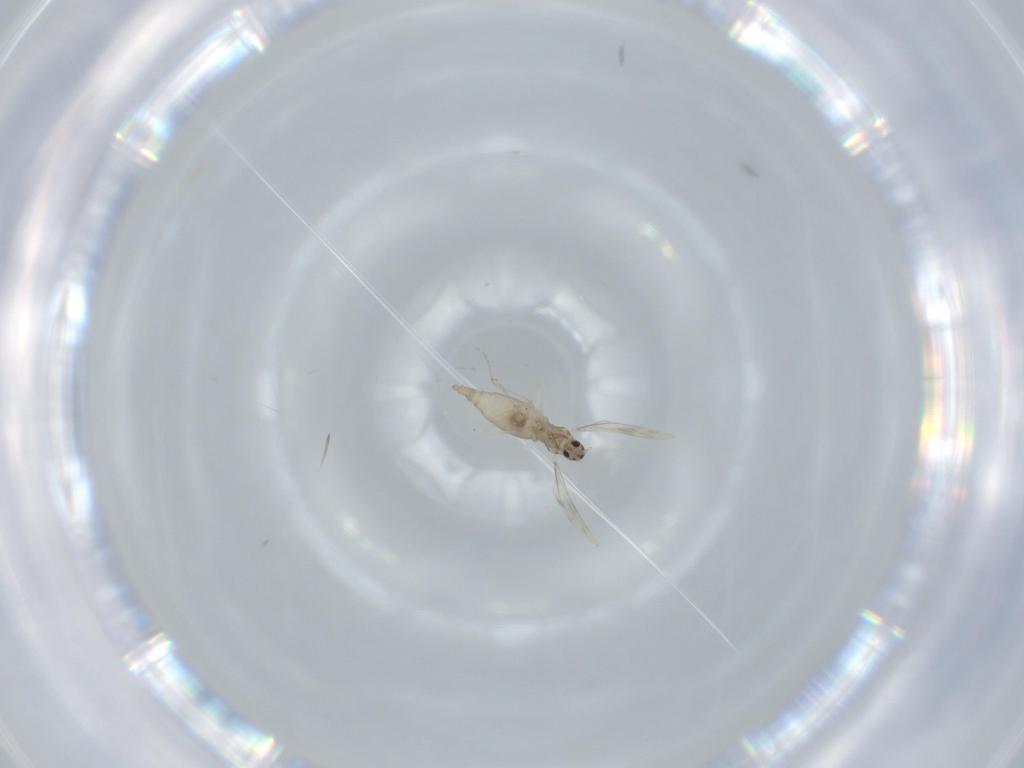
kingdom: Animalia
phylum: Arthropoda
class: Insecta
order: Diptera
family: Cecidomyiidae
